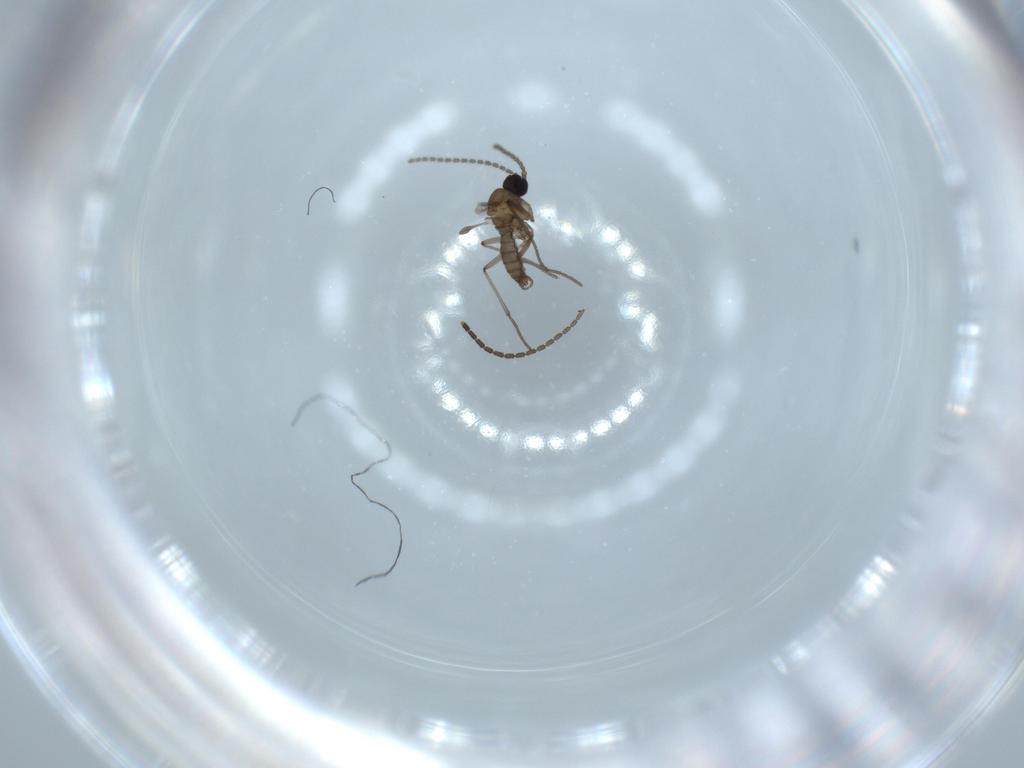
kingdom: Animalia
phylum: Arthropoda
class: Insecta
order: Diptera
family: Sciaridae
